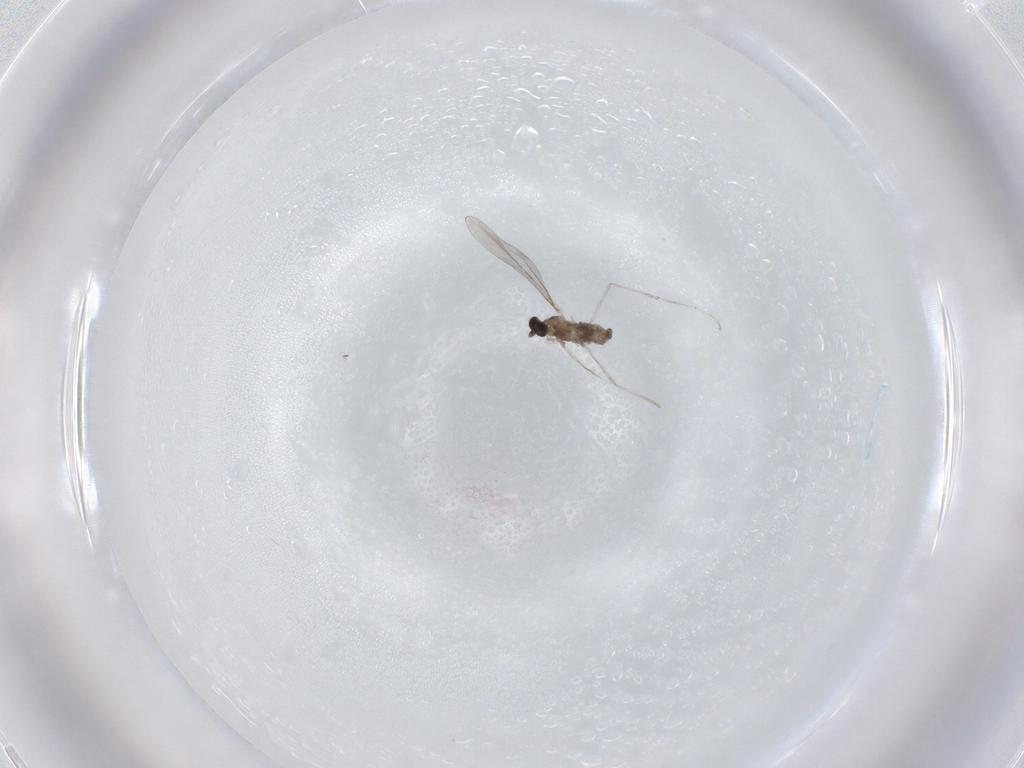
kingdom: Animalia
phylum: Arthropoda
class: Insecta
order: Diptera
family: Cecidomyiidae
